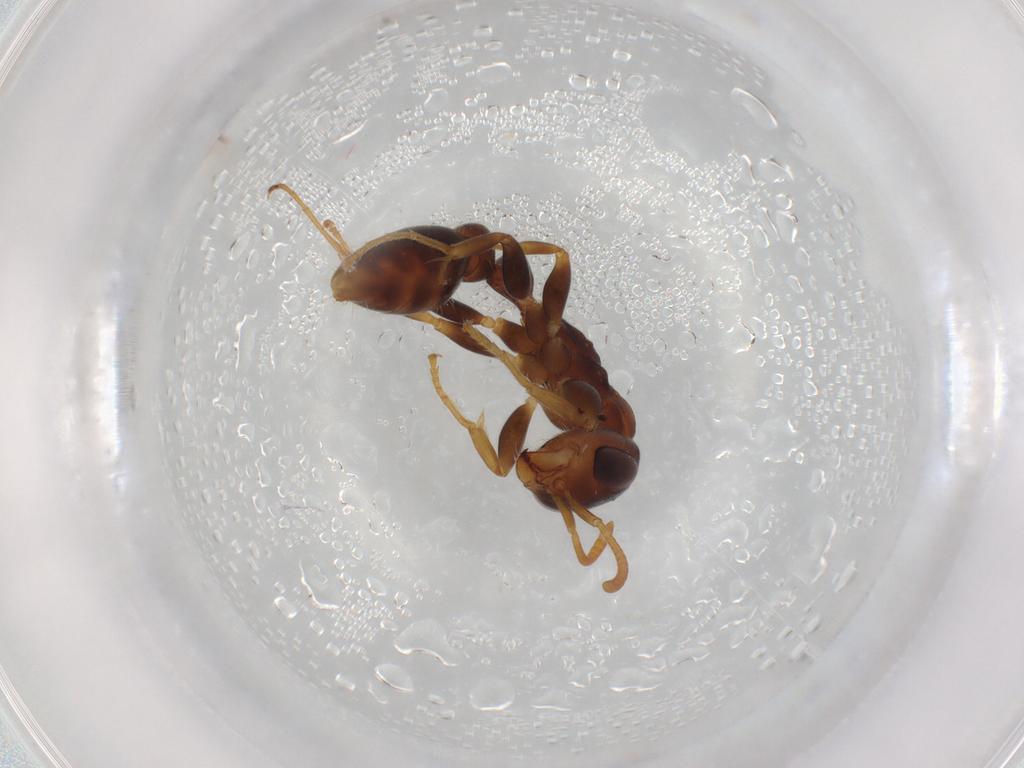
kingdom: Animalia
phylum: Arthropoda
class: Insecta
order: Hymenoptera
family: Formicidae
